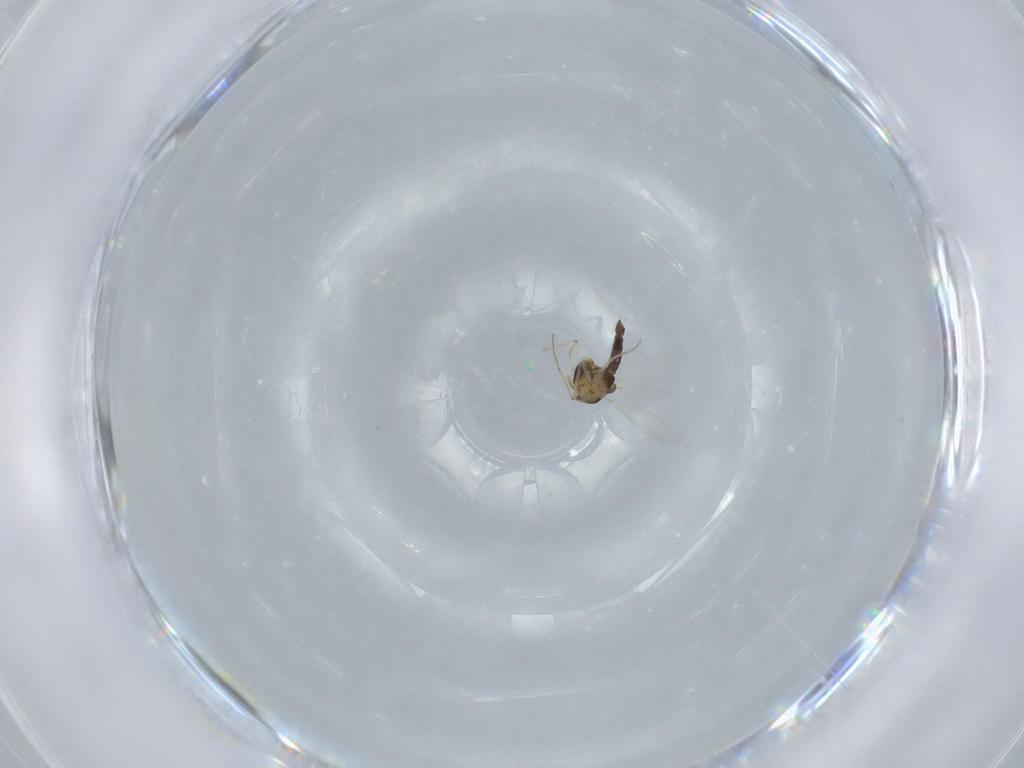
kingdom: Animalia
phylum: Arthropoda
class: Insecta
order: Diptera
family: Chironomidae
